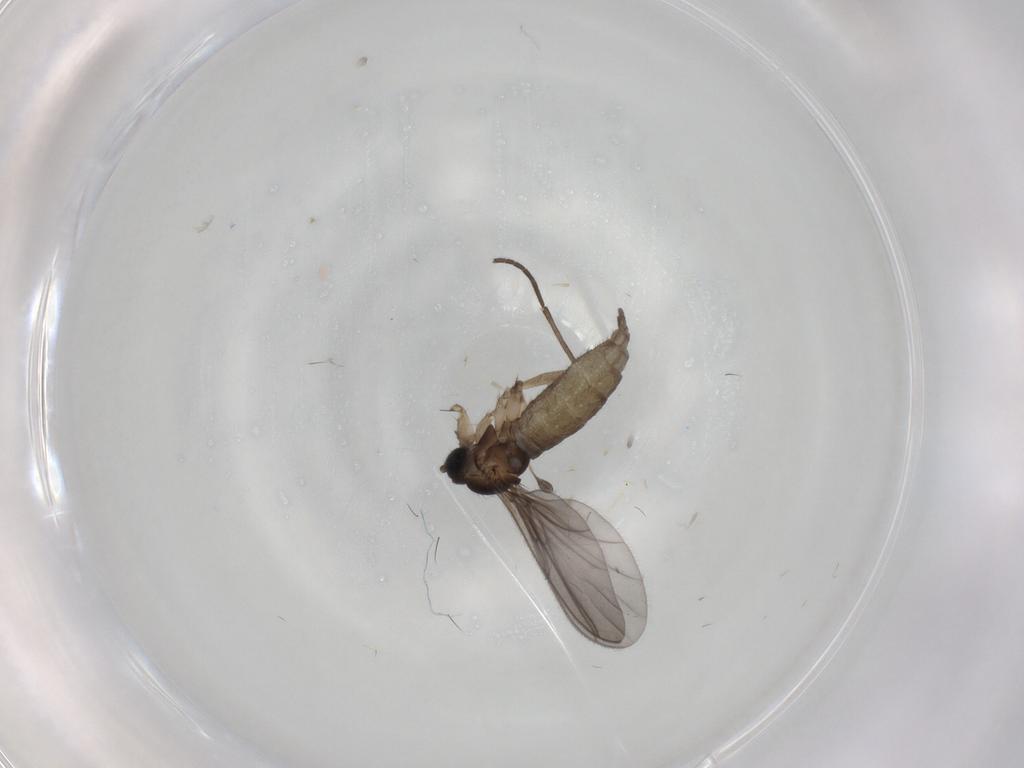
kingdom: Animalia
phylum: Arthropoda
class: Insecta
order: Diptera
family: Sciaridae
